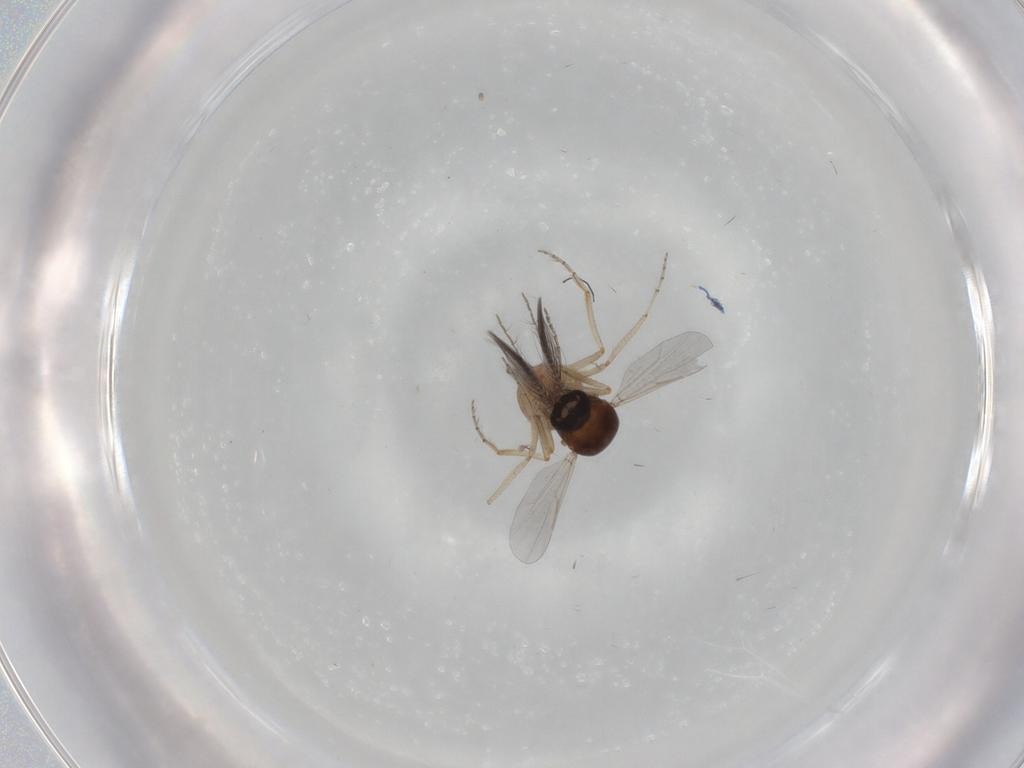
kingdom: Animalia
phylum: Arthropoda
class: Insecta
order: Diptera
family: Ceratopogonidae
